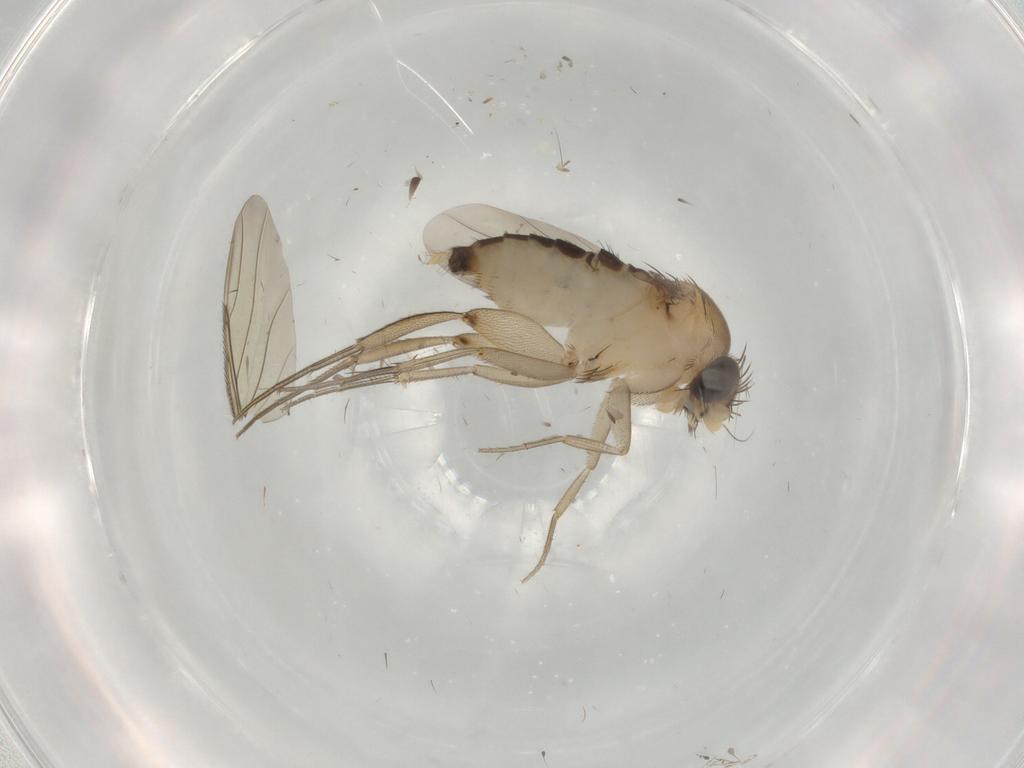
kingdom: Animalia
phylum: Arthropoda
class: Insecta
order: Diptera
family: Phoridae
